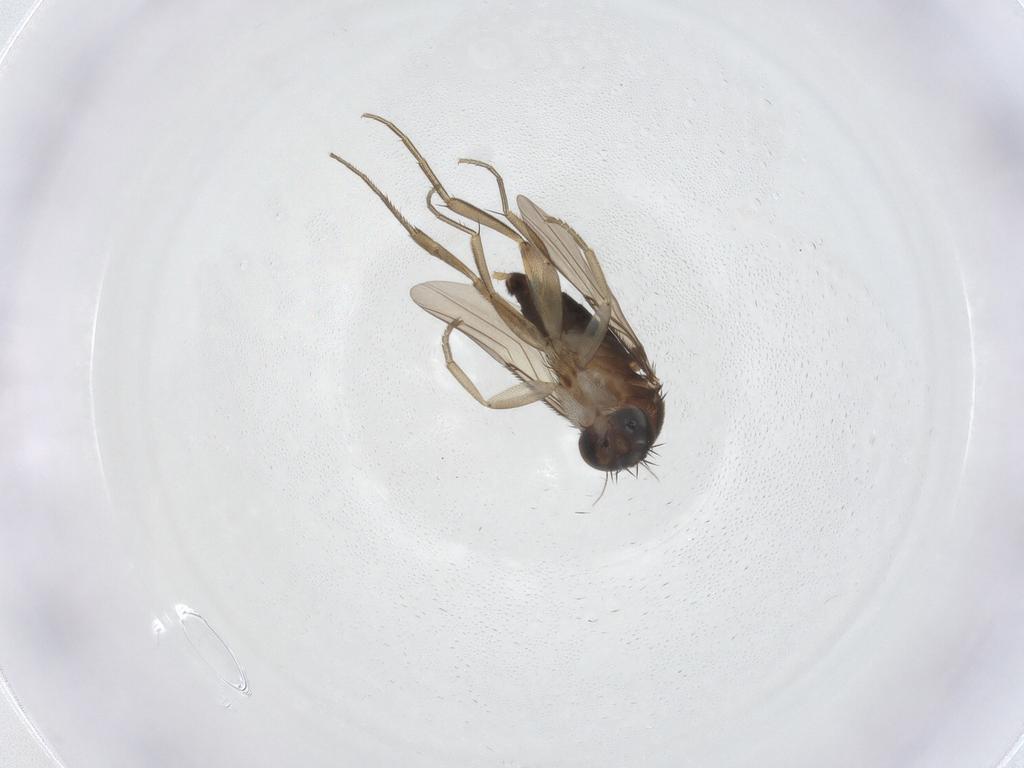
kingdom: Animalia
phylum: Arthropoda
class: Insecta
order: Diptera
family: Phoridae
